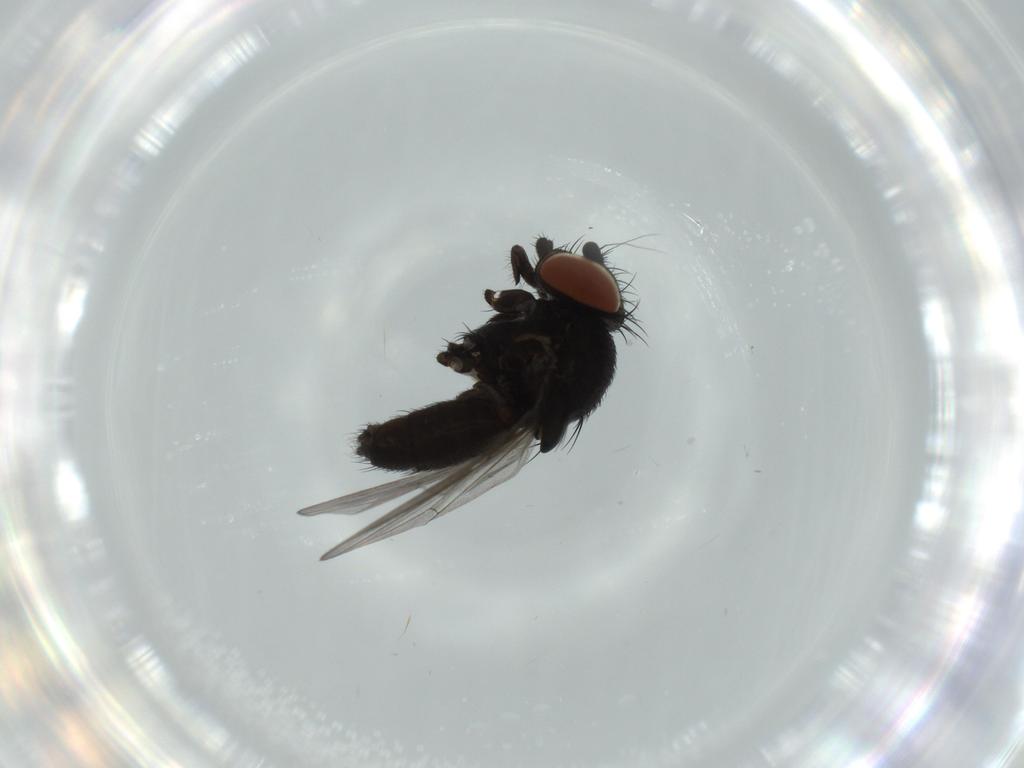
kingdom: Animalia
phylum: Arthropoda
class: Insecta
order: Diptera
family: Milichiidae
